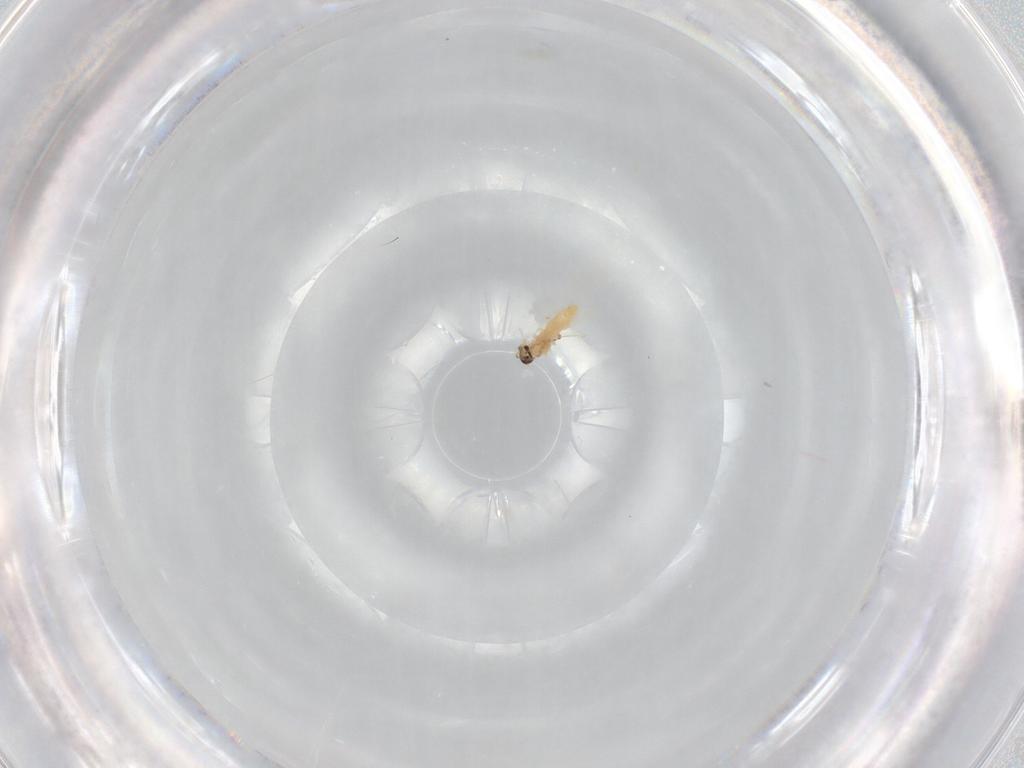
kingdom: Animalia
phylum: Arthropoda
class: Insecta
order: Diptera
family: Cecidomyiidae
